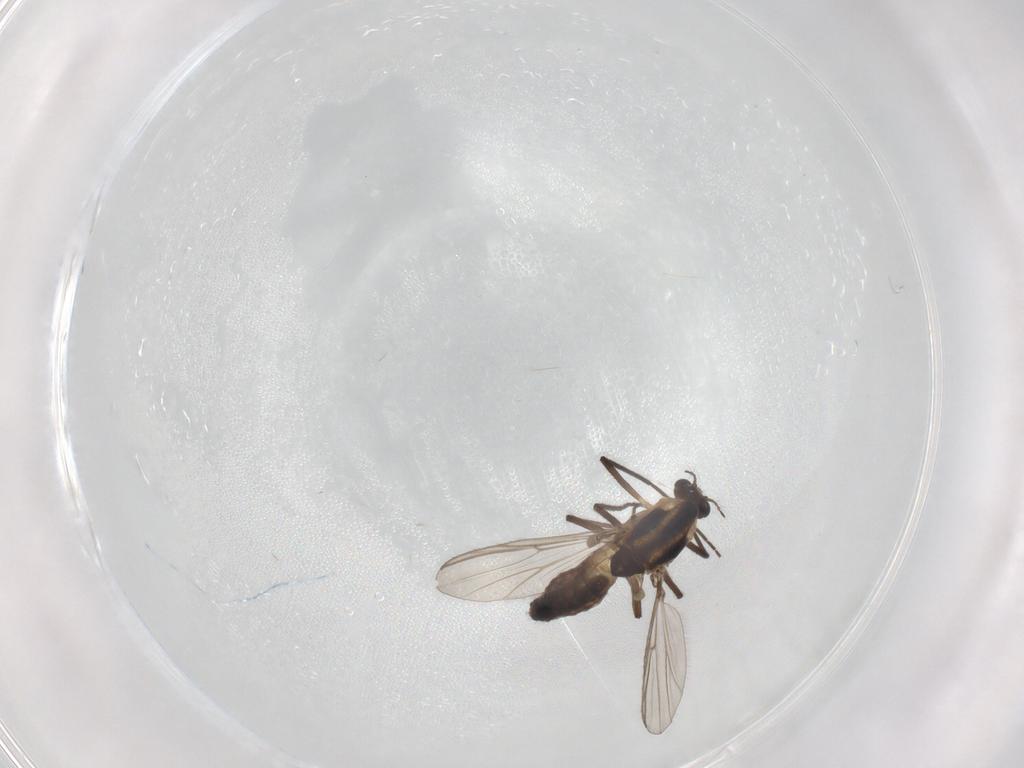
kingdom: Animalia
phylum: Arthropoda
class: Insecta
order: Diptera
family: Chironomidae
